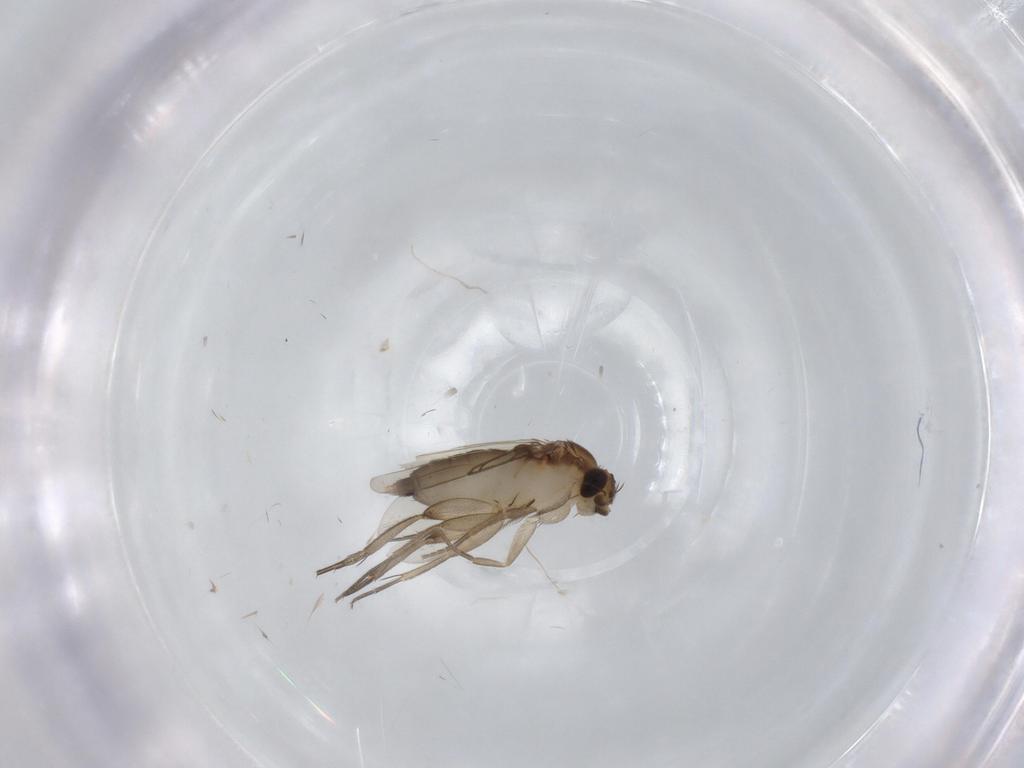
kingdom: Animalia
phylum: Arthropoda
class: Insecta
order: Diptera
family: Phoridae
